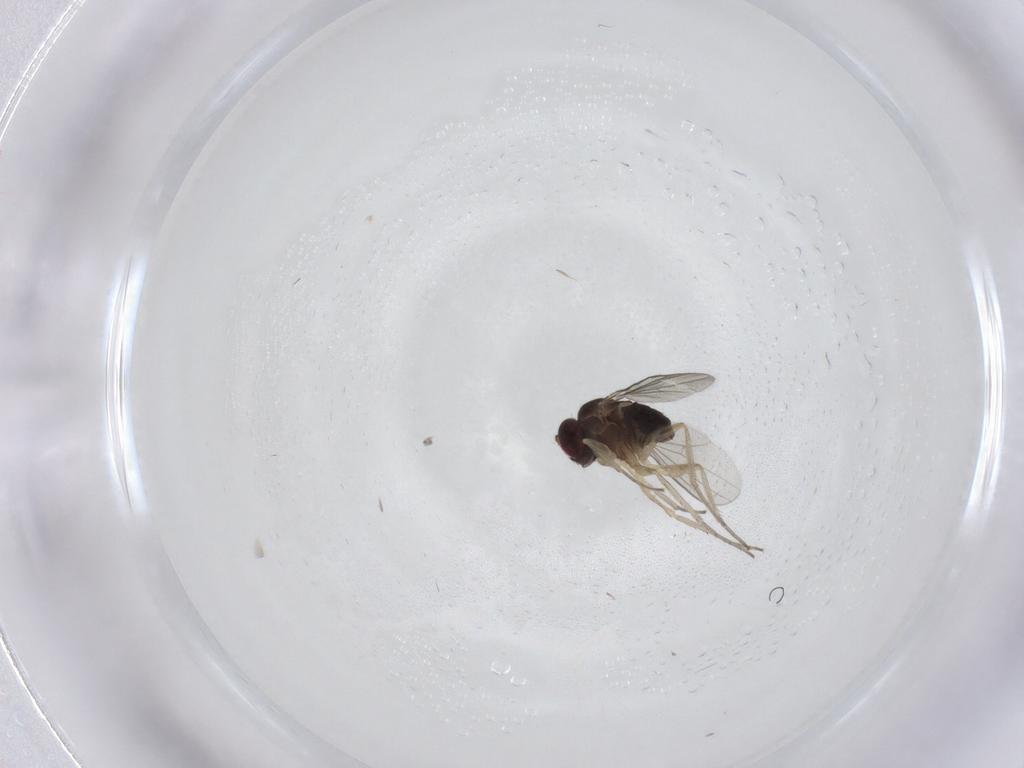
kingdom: Animalia
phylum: Arthropoda
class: Insecta
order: Diptera
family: Dolichopodidae
